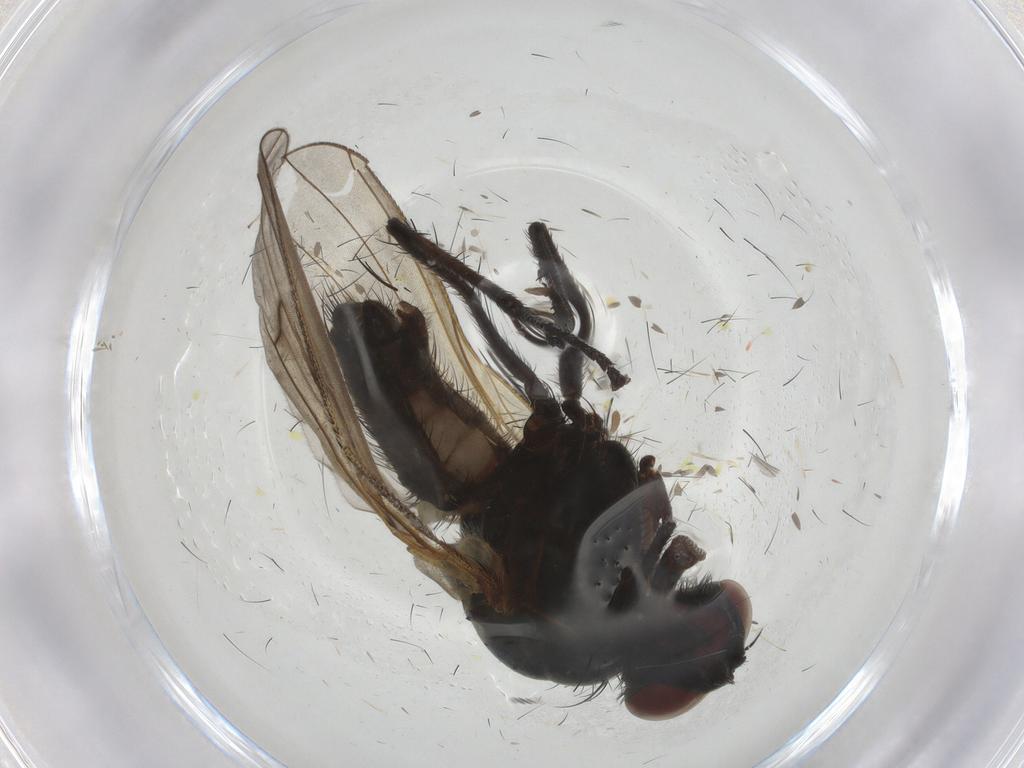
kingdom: Animalia
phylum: Arthropoda
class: Insecta
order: Diptera
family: Anthomyiidae
